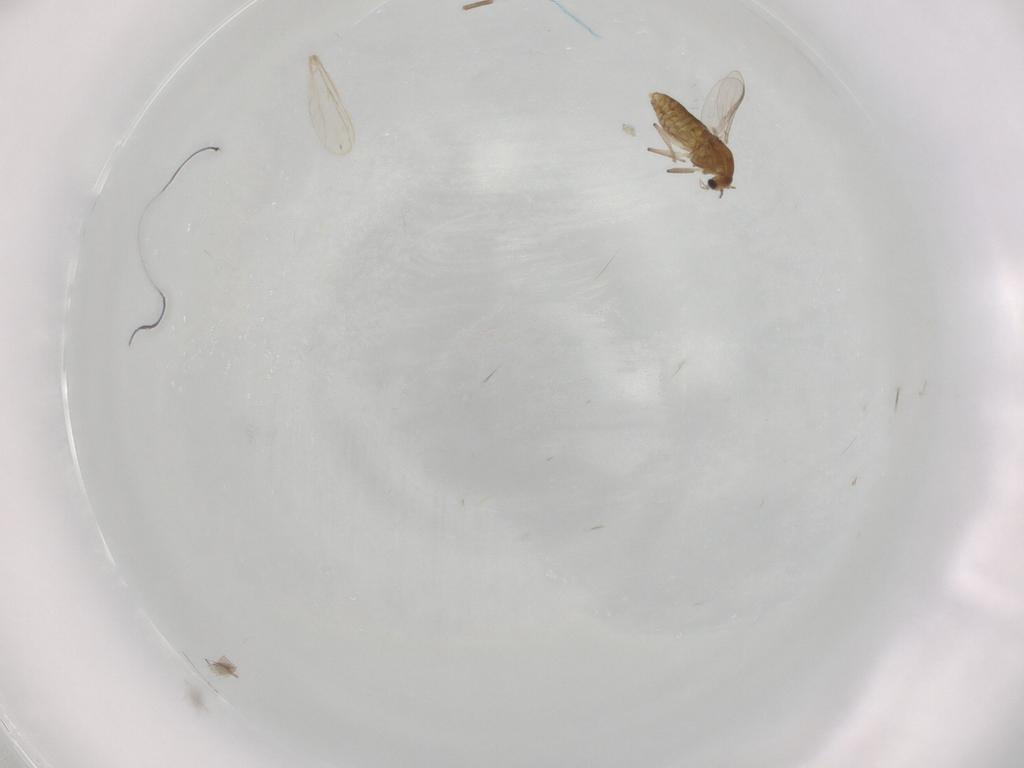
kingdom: Animalia
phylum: Arthropoda
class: Insecta
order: Diptera
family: Chironomidae
